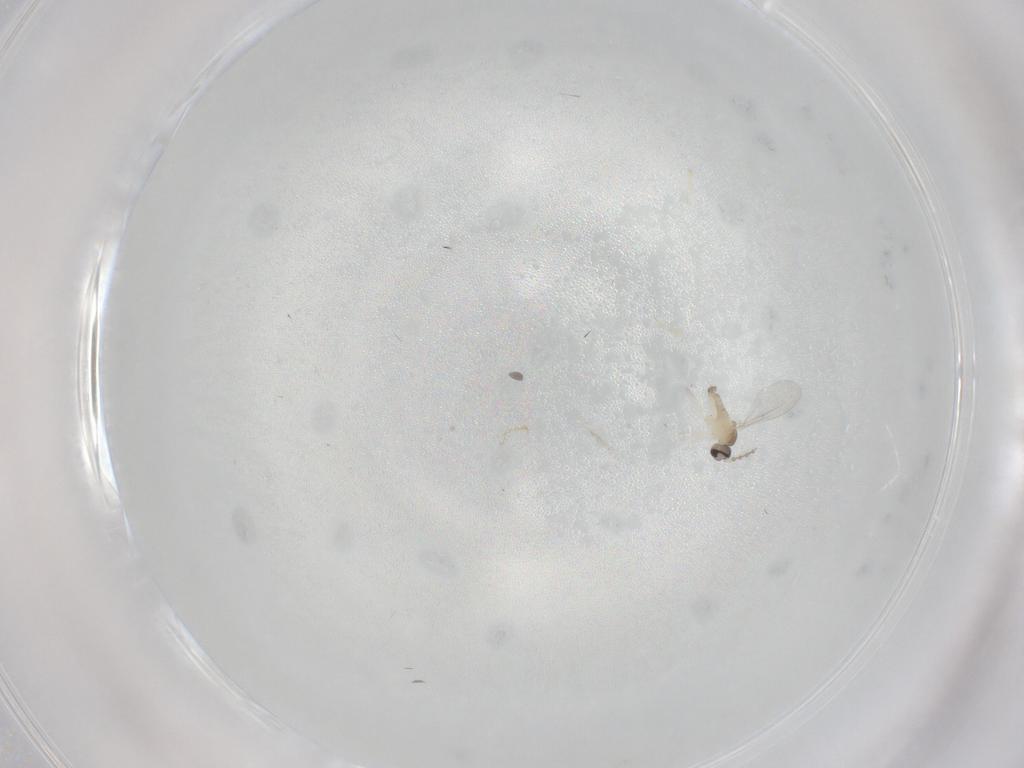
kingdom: Animalia
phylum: Arthropoda
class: Insecta
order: Diptera
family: Cecidomyiidae
